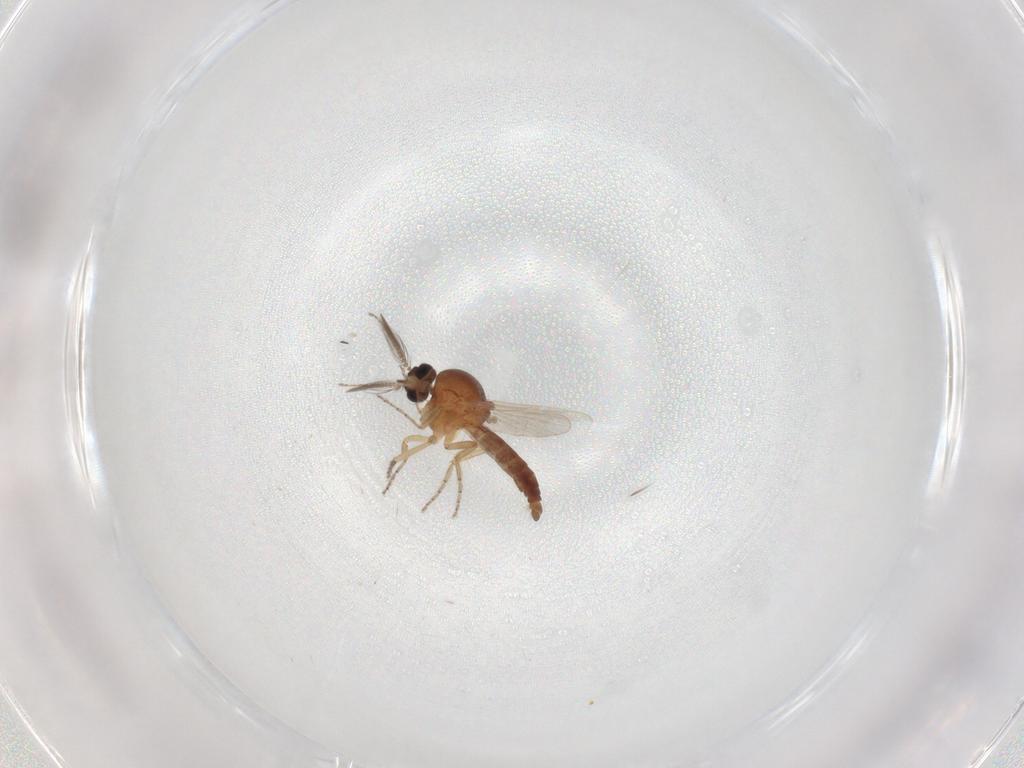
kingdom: Animalia
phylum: Arthropoda
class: Insecta
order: Diptera
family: Ceratopogonidae
